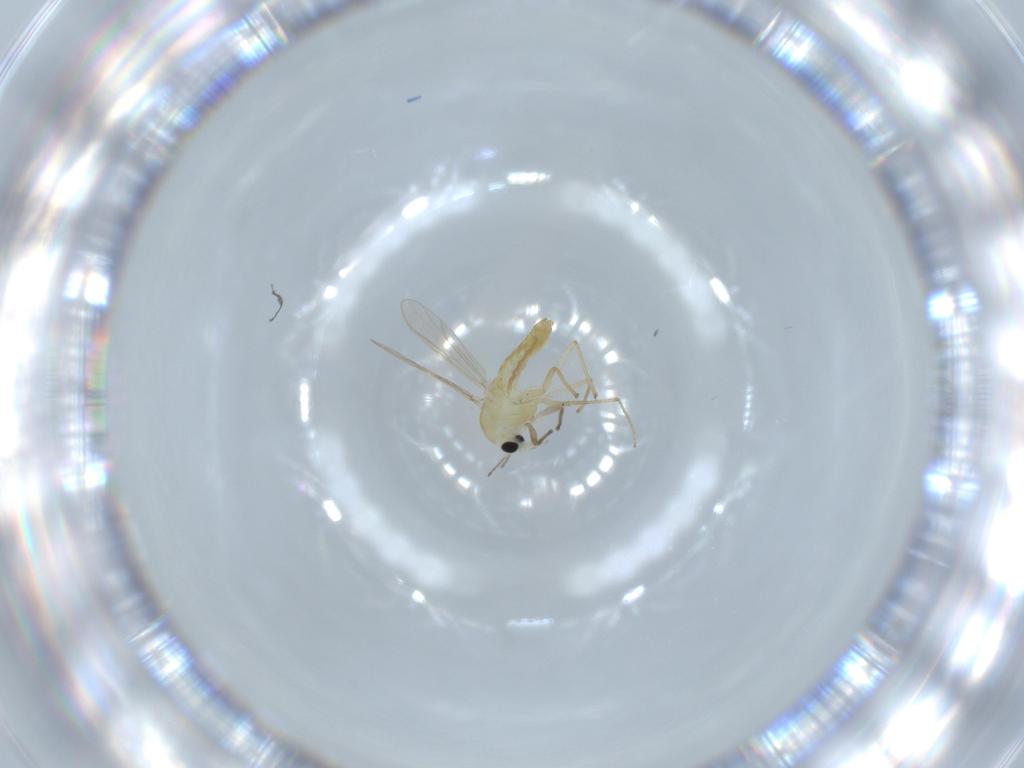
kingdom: Animalia
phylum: Arthropoda
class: Insecta
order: Diptera
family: Chironomidae
